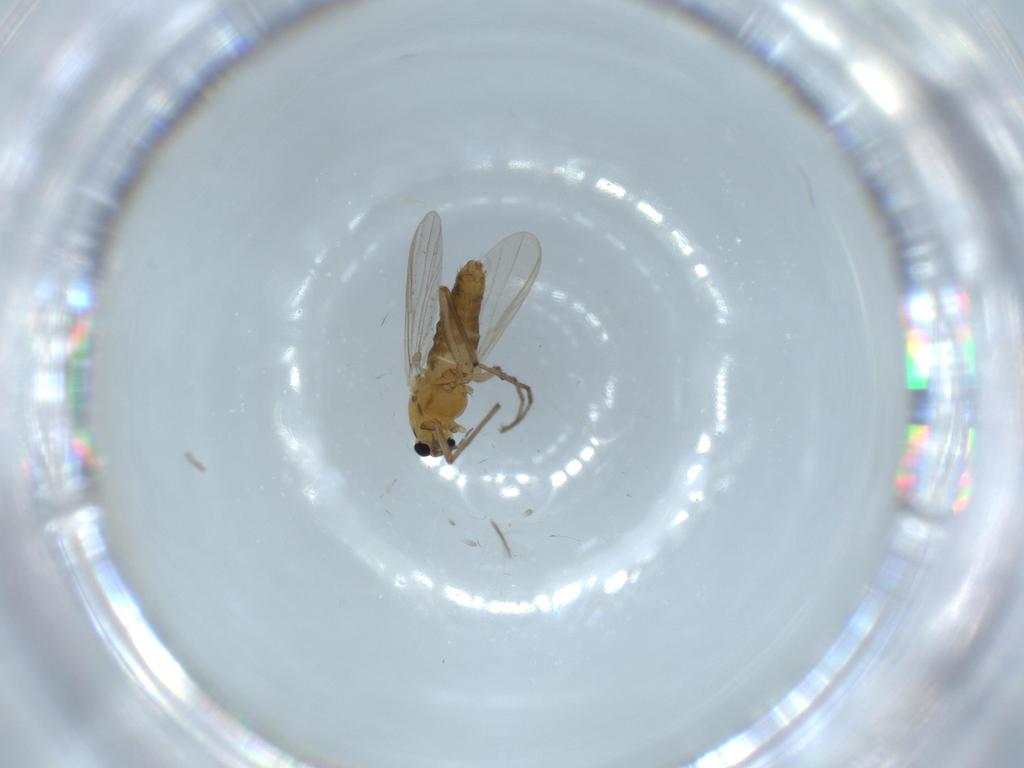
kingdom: Animalia
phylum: Arthropoda
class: Insecta
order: Diptera
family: Chironomidae
